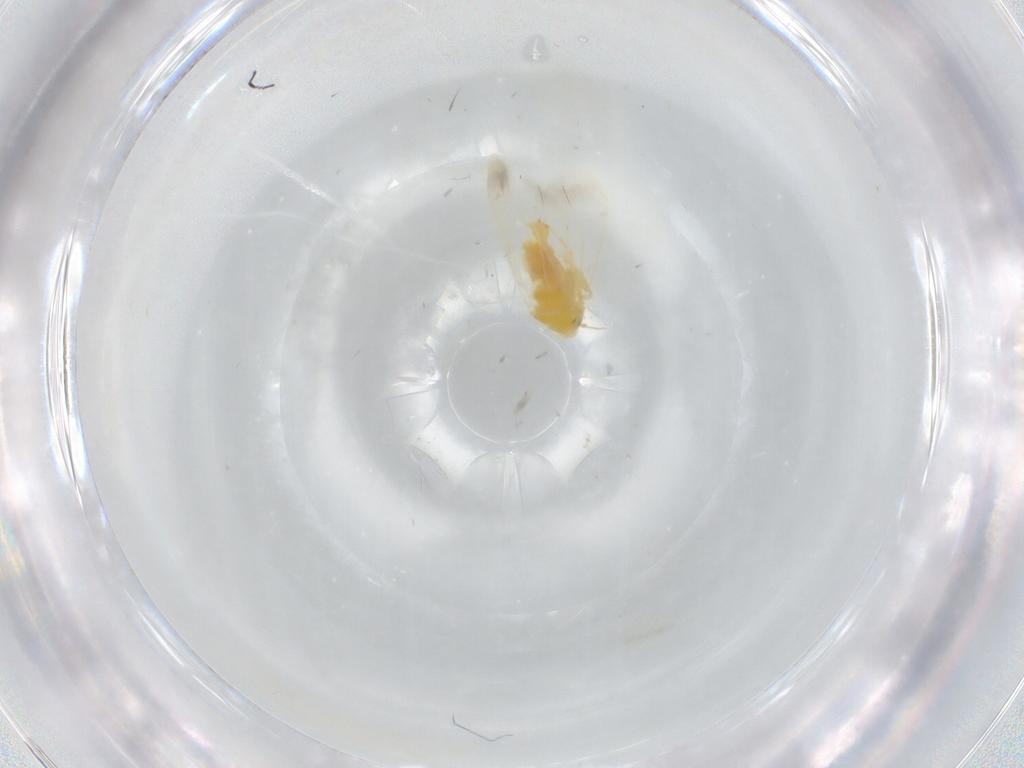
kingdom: Animalia
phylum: Arthropoda
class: Insecta
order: Hemiptera
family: Aleyrodidae
